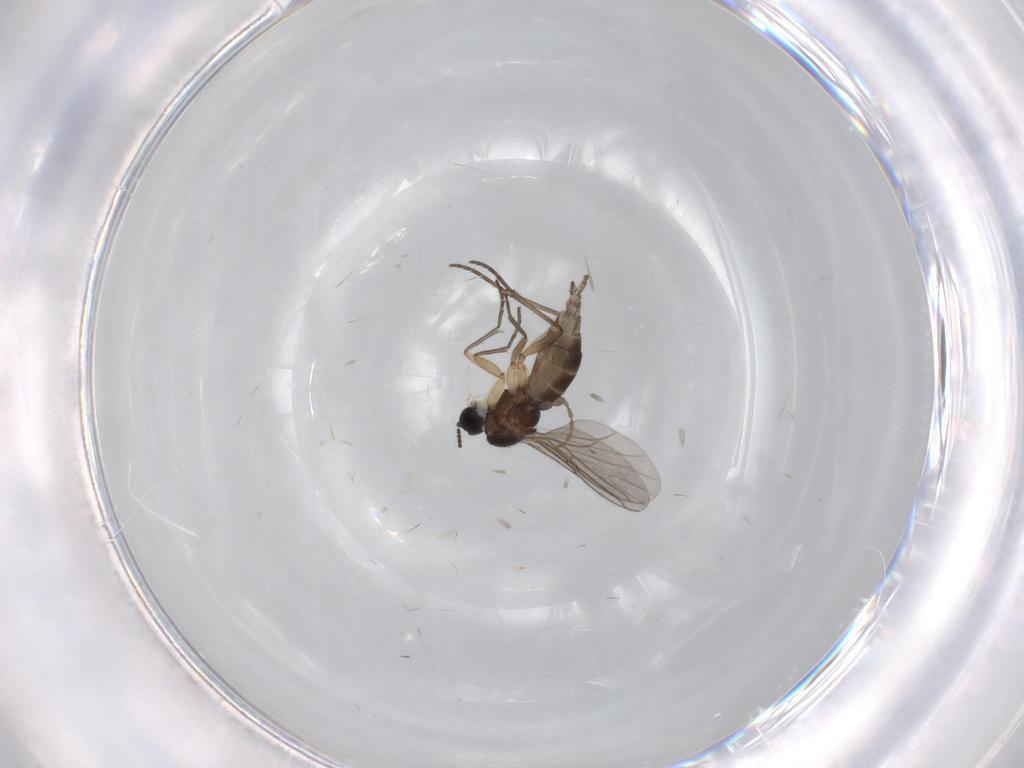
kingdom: Animalia
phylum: Arthropoda
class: Insecta
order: Diptera
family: Sciaridae
